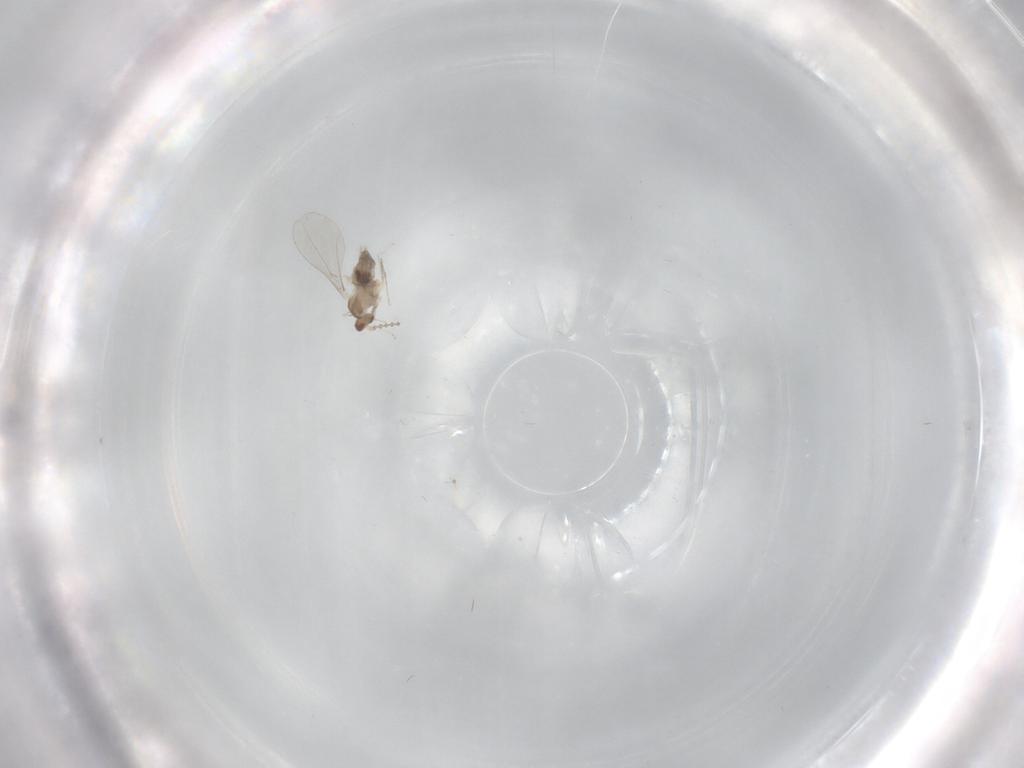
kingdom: Animalia
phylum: Arthropoda
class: Insecta
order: Diptera
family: Cecidomyiidae
